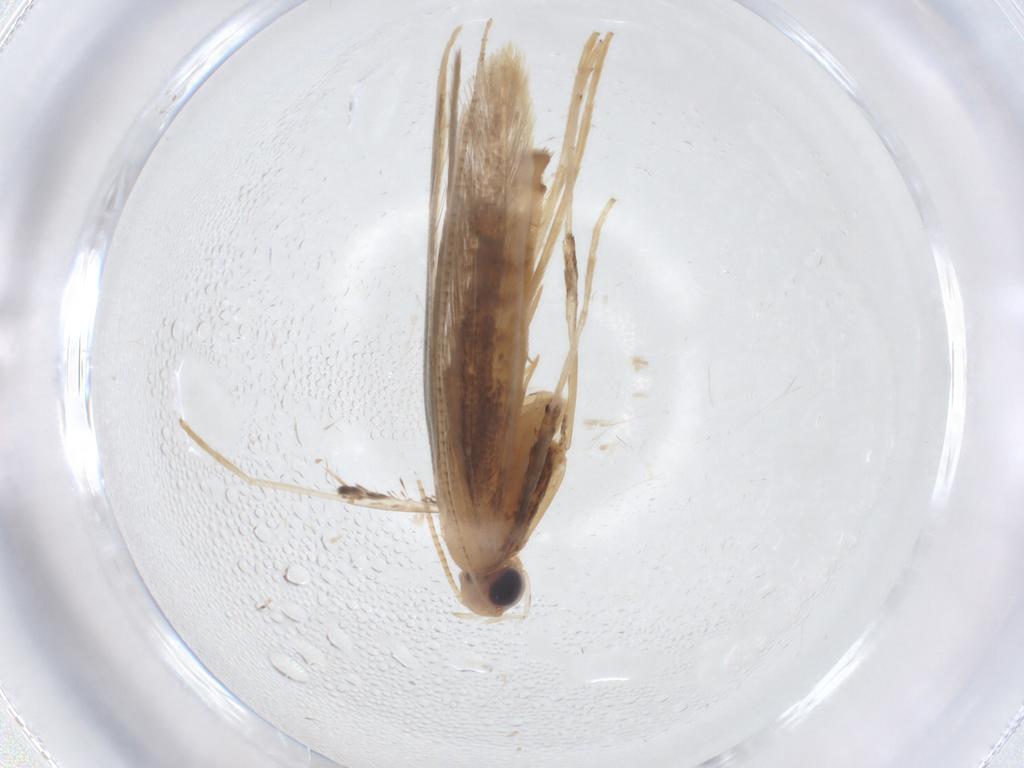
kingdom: Animalia
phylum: Arthropoda
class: Insecta
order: Lepidoptera
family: Gracillariidae
